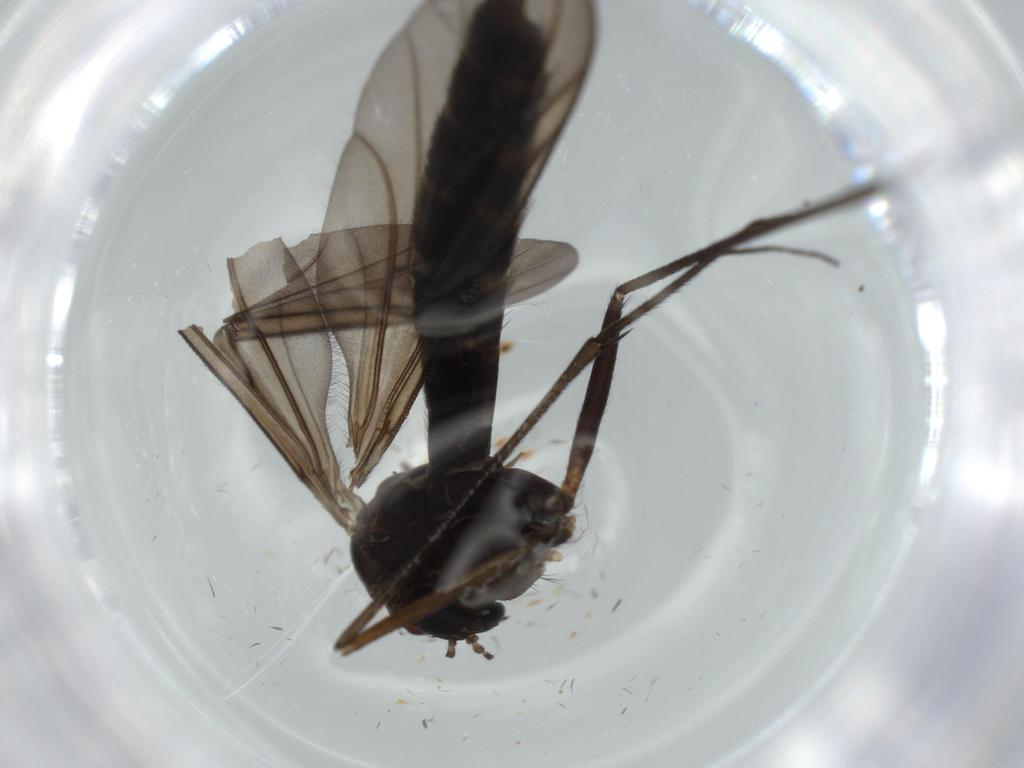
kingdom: Animalia
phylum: Arthropoda
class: Insecta
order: Diptera
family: Ditomyiidae
